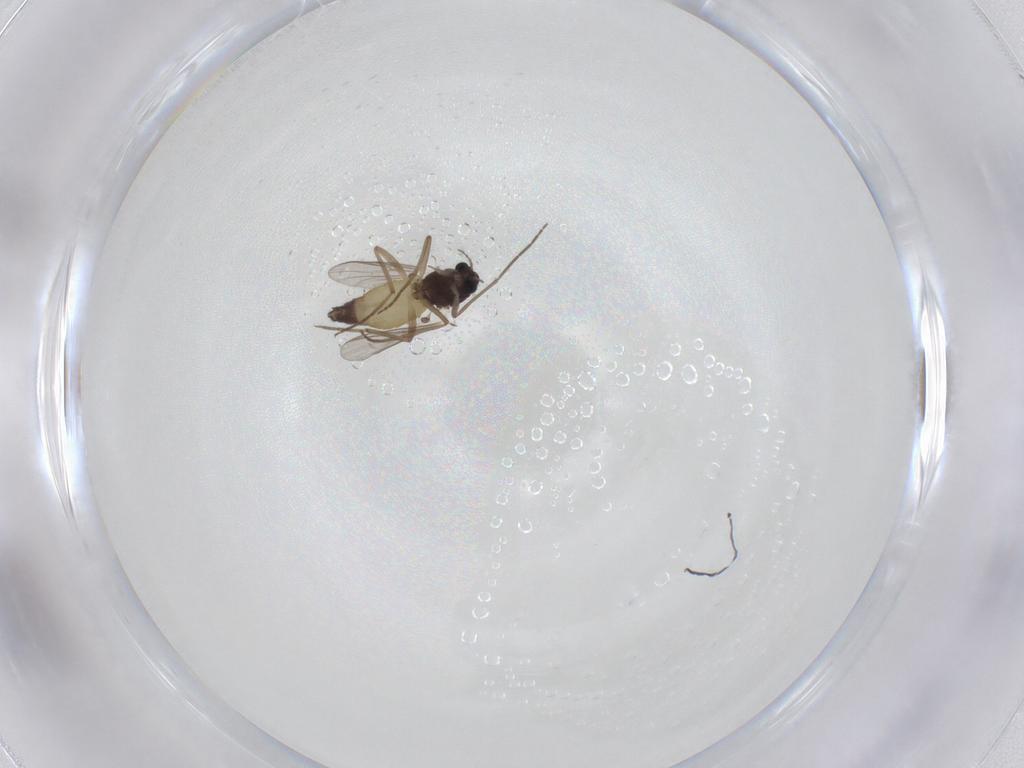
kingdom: Animalia
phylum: Arthropoda
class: Insecta
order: Diptera
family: Chironomidae
